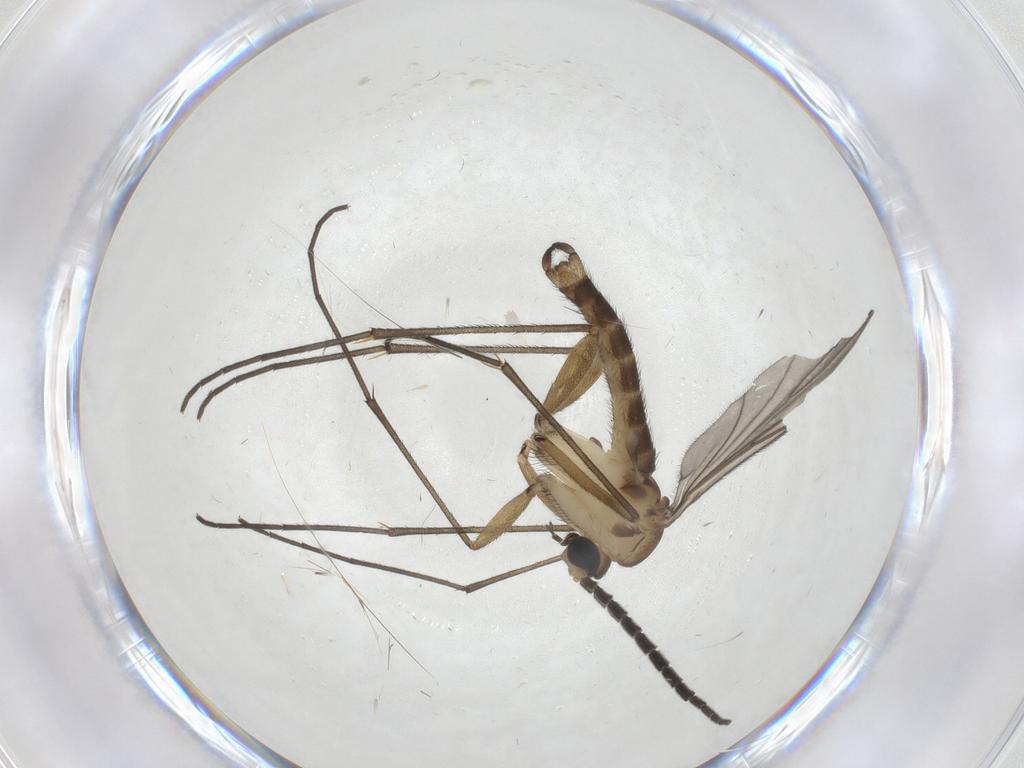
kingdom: Animalia
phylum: Arthropoda
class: Insecta
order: Diptera
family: Sciaridae
